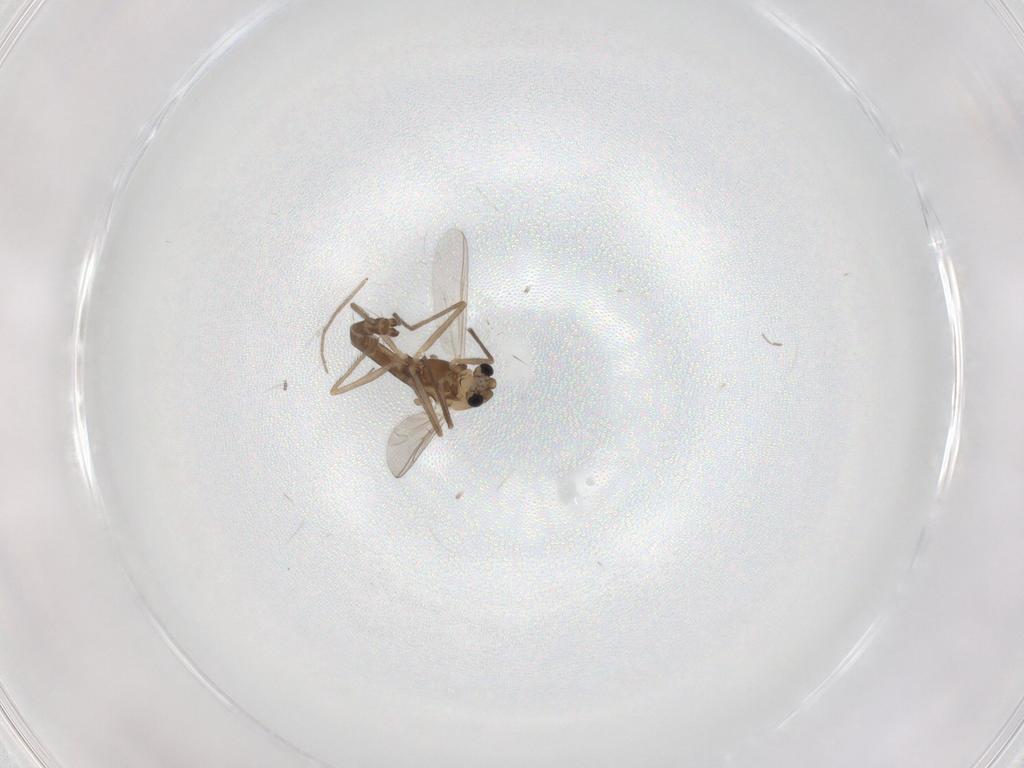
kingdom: Animalia
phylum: Arthropoda
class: Insecta
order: Diptera
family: Chironomidae
